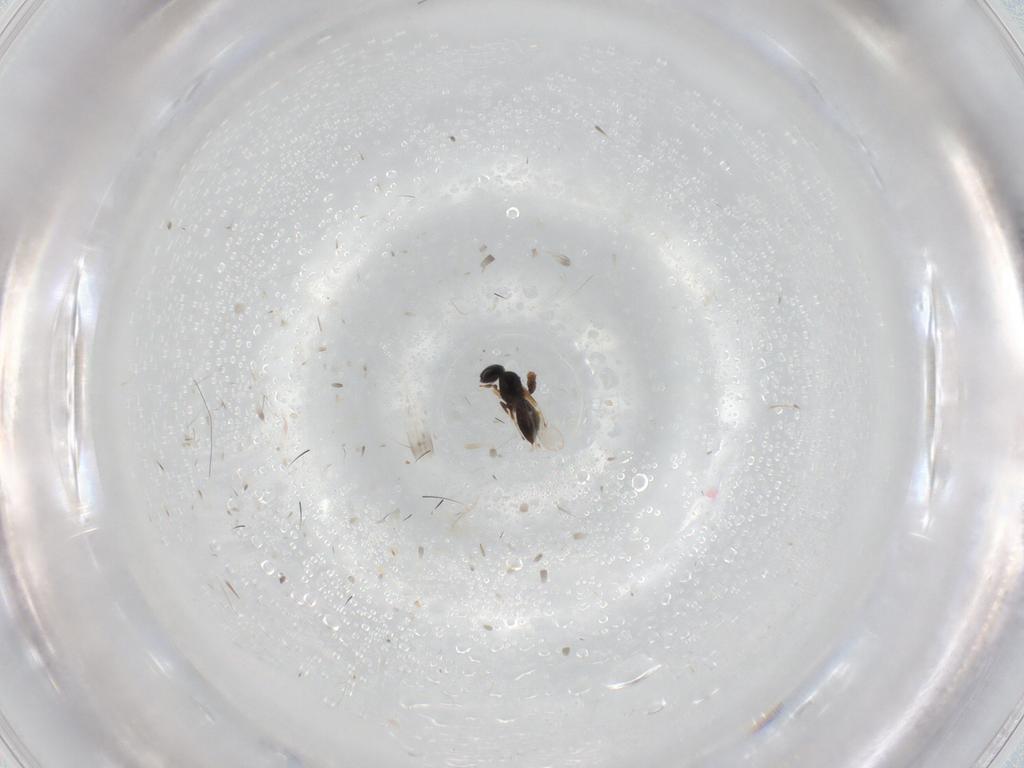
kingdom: Animalia
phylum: Arthropoda
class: Insecta
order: Hymenoptera
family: Scelionidae
